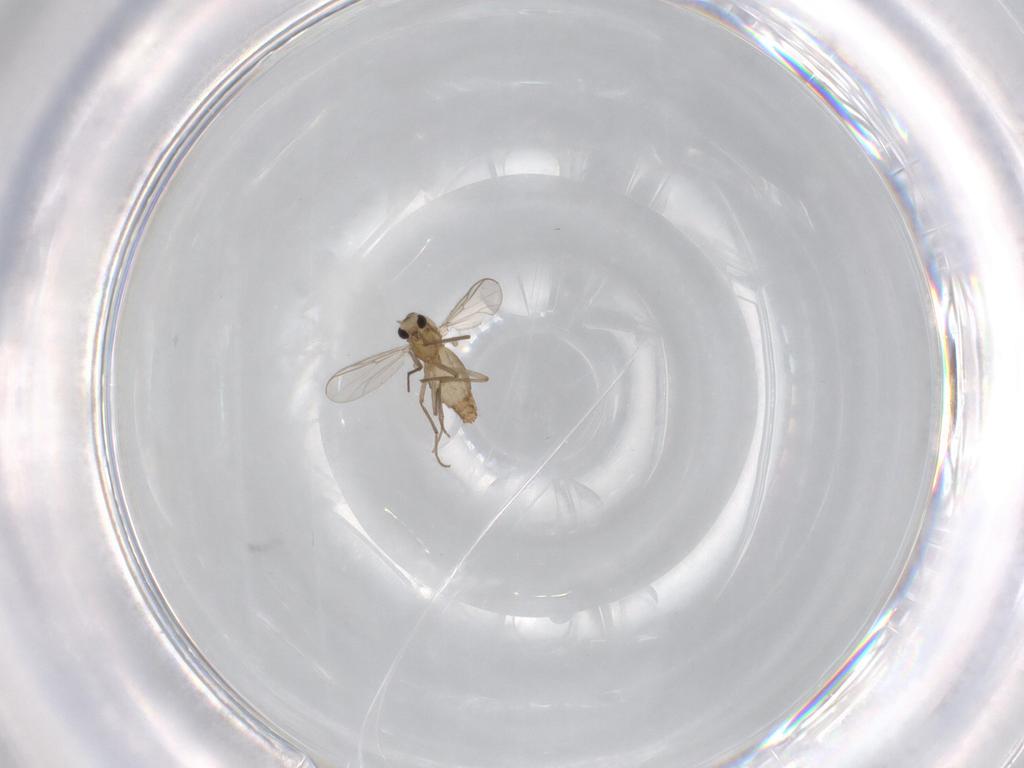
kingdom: Animalia
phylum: Arthropoda
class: Insecta
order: Diptera
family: Chironomidae
